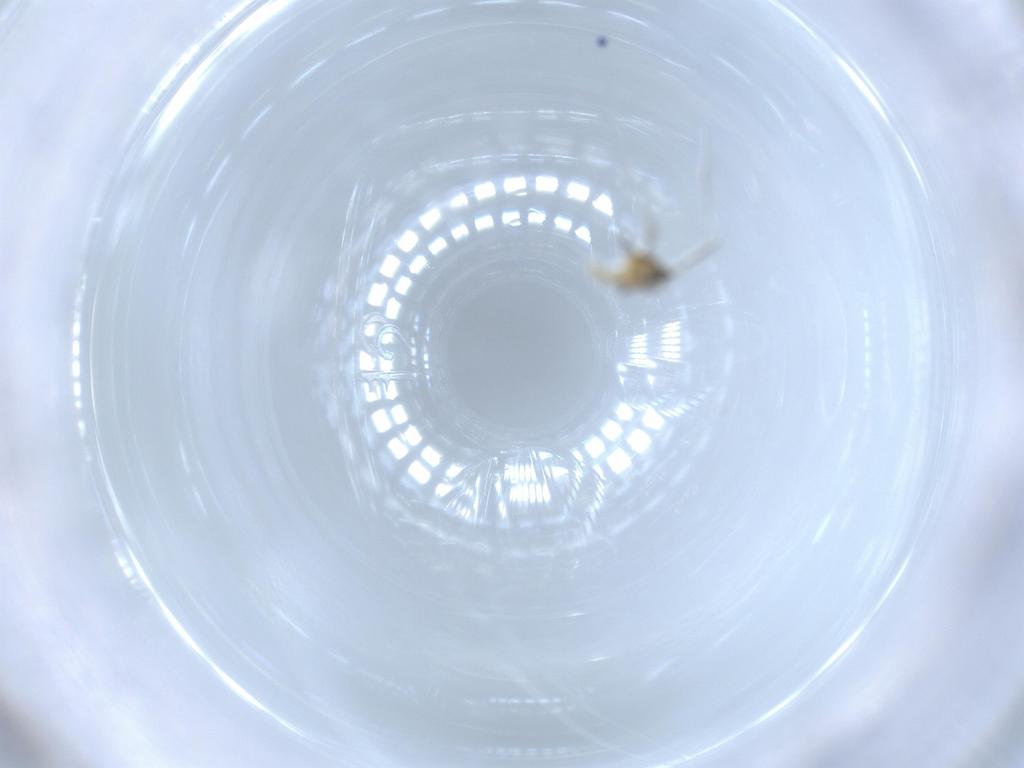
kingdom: Animalia
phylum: Arthropoda
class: Insecta
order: Diptera
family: Cecidomyiidae
